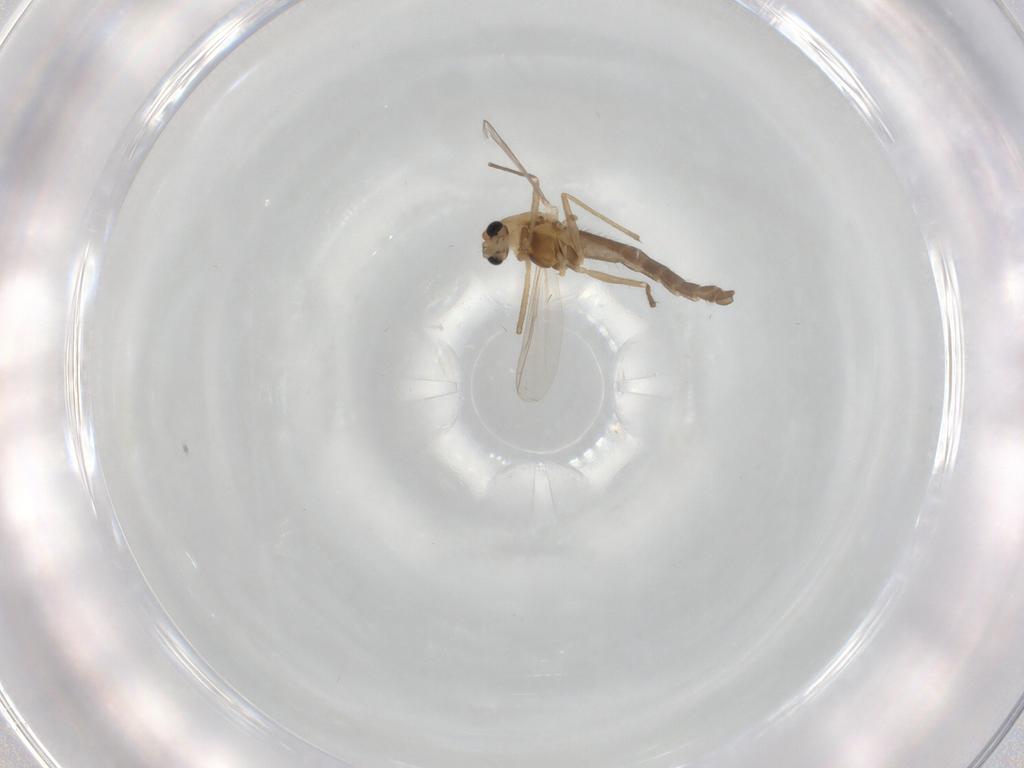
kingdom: Animalia
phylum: Arthropoda
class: Insecta
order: Diptera
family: Chironomidae
